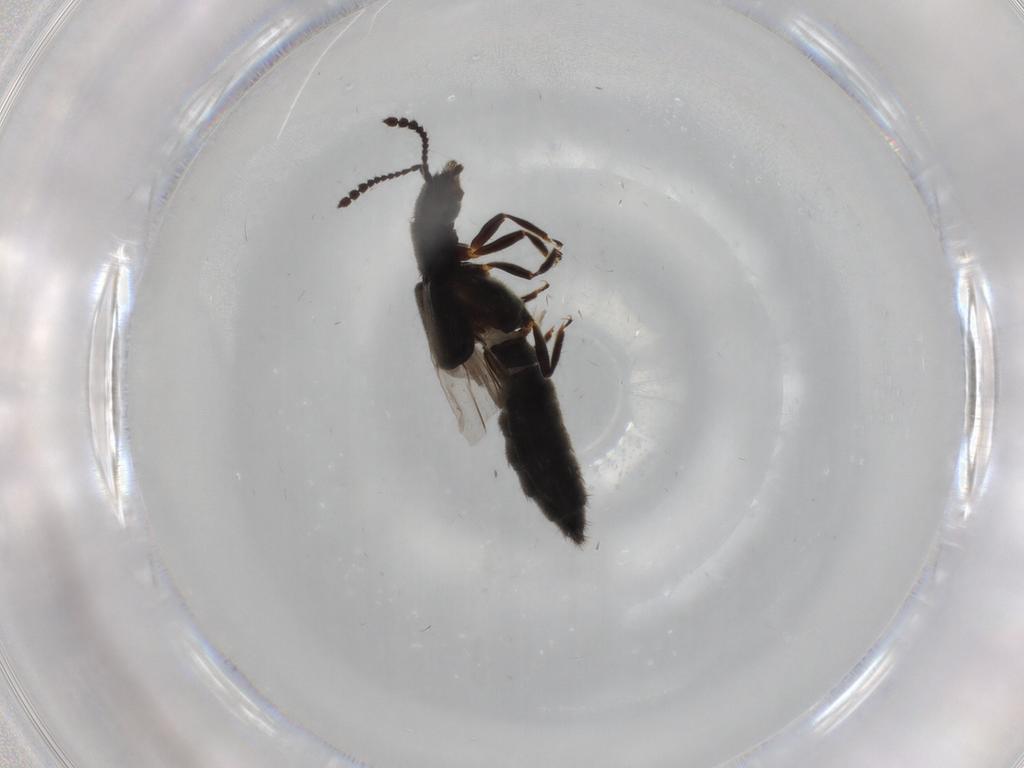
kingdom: Animalia
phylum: Arthropoda
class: Insecta
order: Coleoptera
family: Staphylinidae
